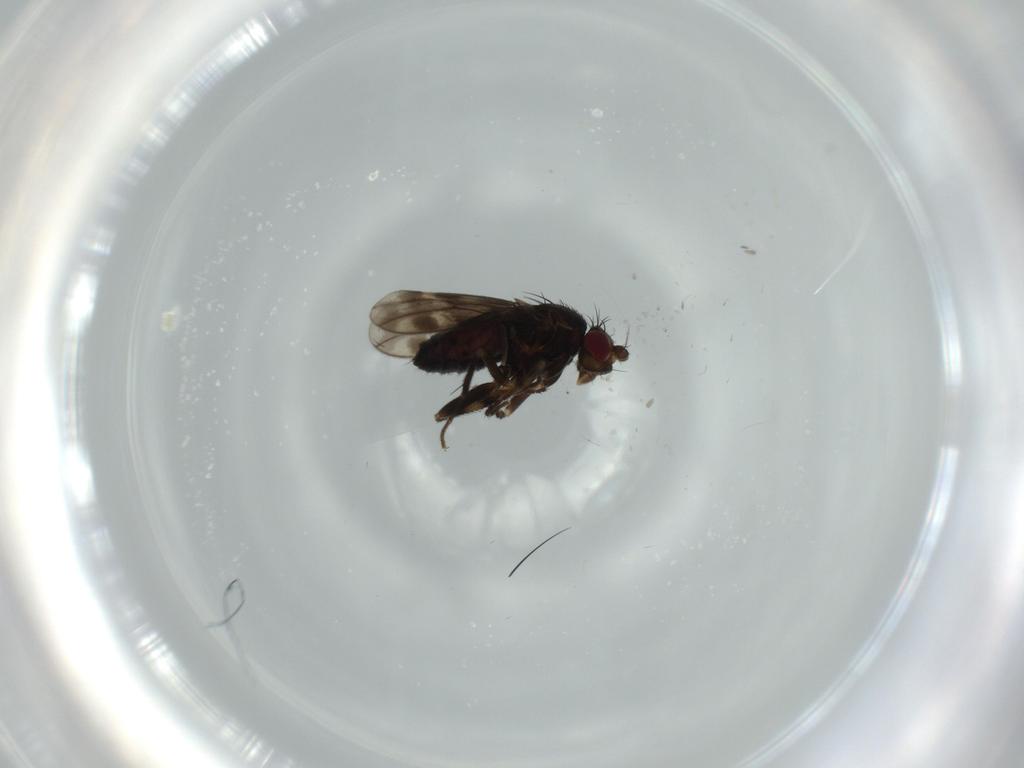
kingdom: Animalia
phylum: Arthropoda
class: Insecta
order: Diptera
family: Sphaeroceridae
